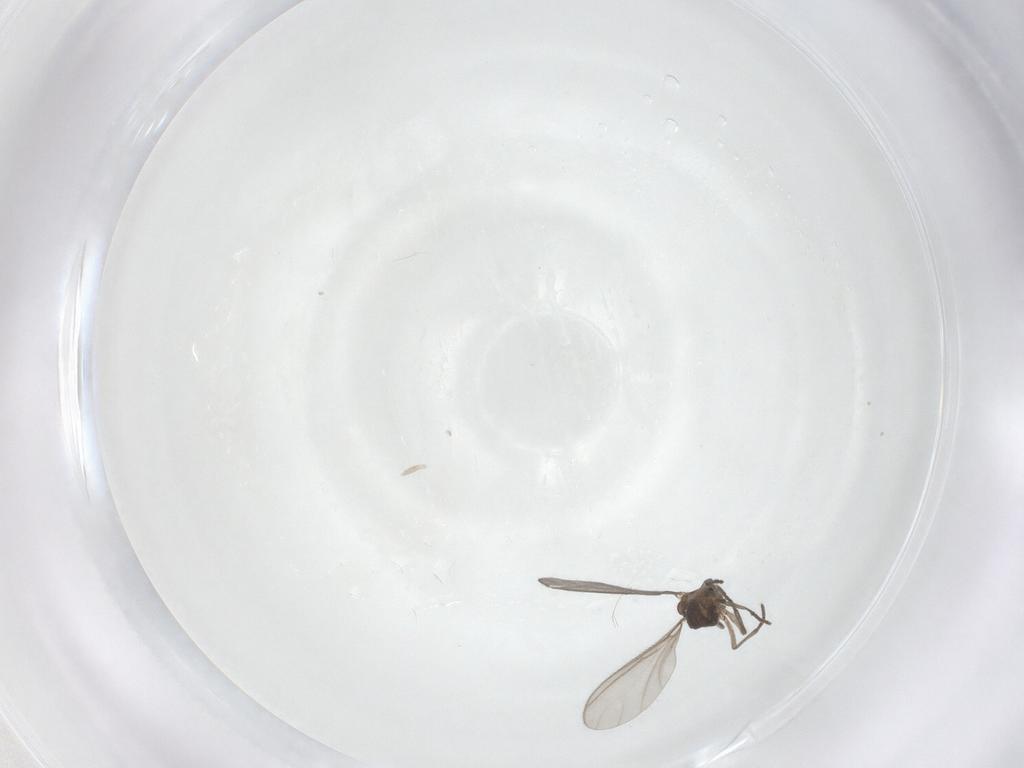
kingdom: Animalia
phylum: Arthropoda
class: Insecta
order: Diptera
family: Sciaridae
